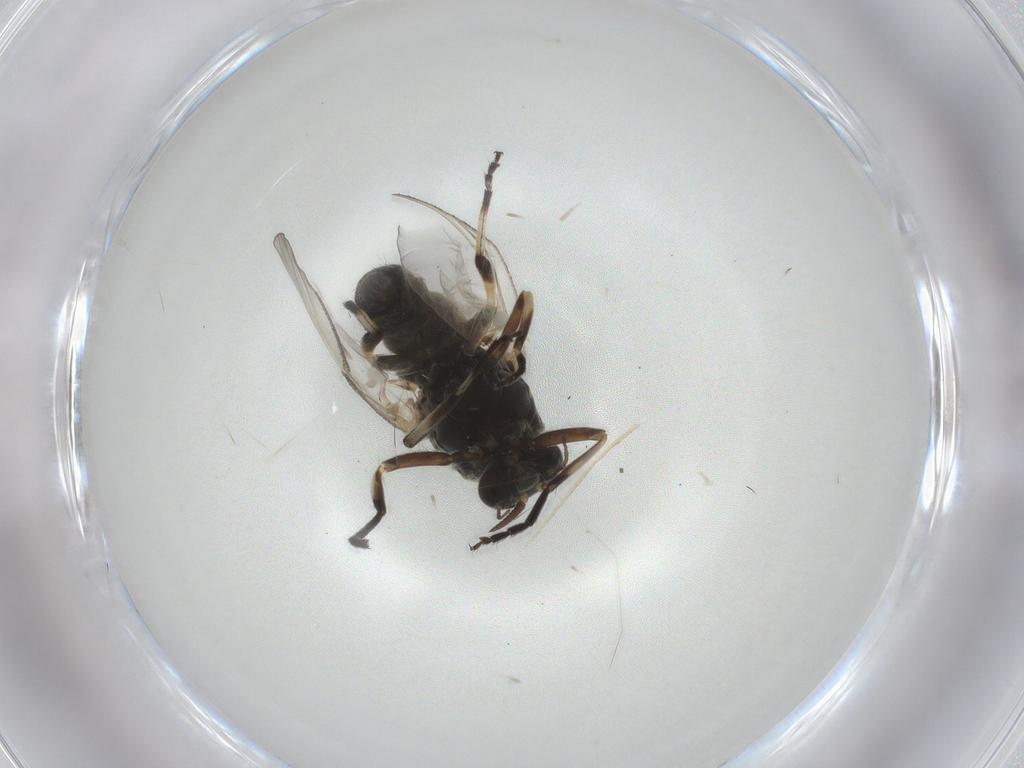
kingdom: Animalia
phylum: Arthropoda
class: Insecta
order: Diptera
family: Simuliidae
